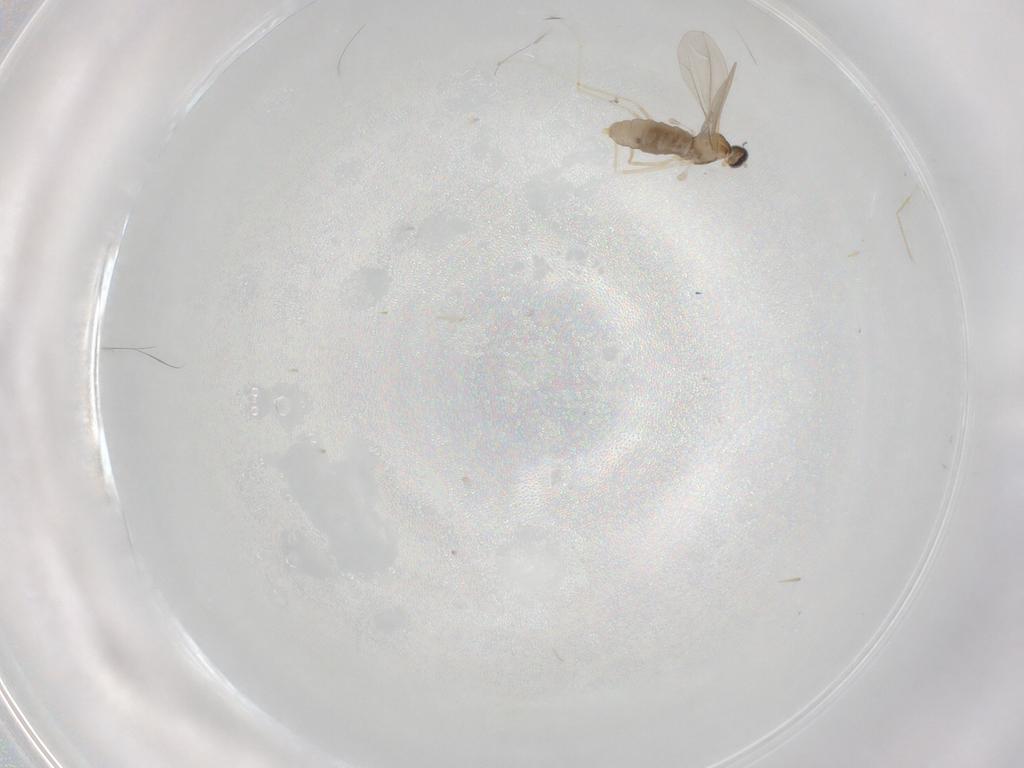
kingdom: Animalia
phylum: Arthropoda
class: Insecta
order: Diptera
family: Cecidomyiidae
